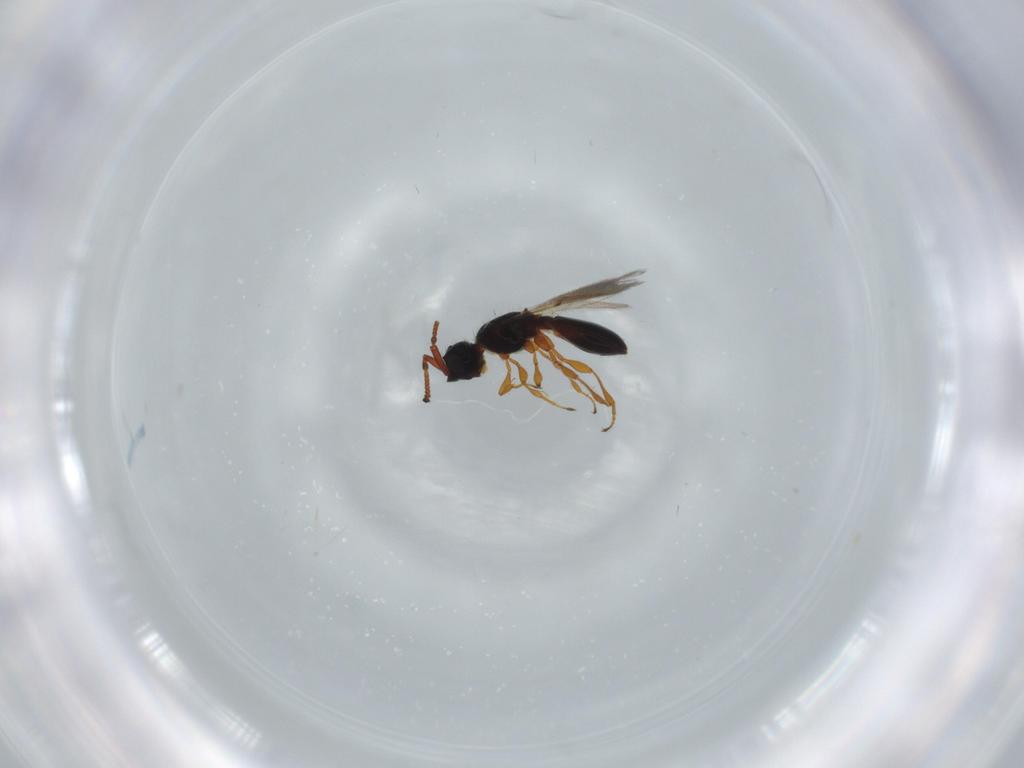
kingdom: Animalia
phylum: Arthropoda
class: Insecta
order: Hymenoptera
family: Diapriidae
